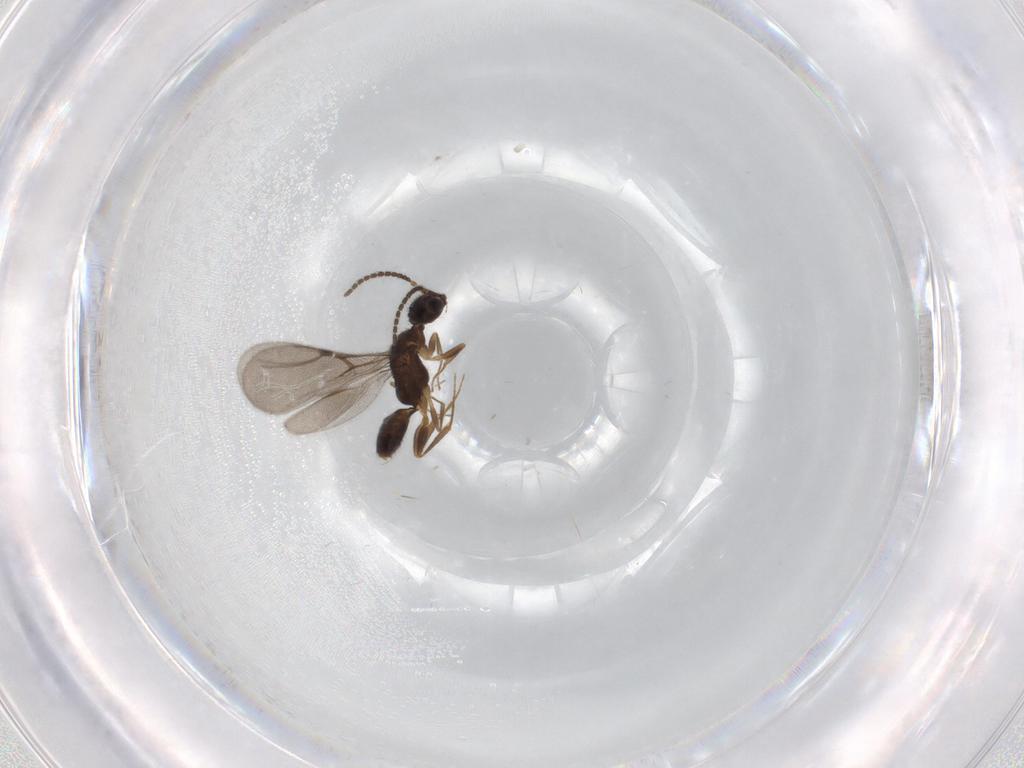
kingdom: Animalia
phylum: Arthropoda
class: Insecta
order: Hymenoptera
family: Bethylidae
